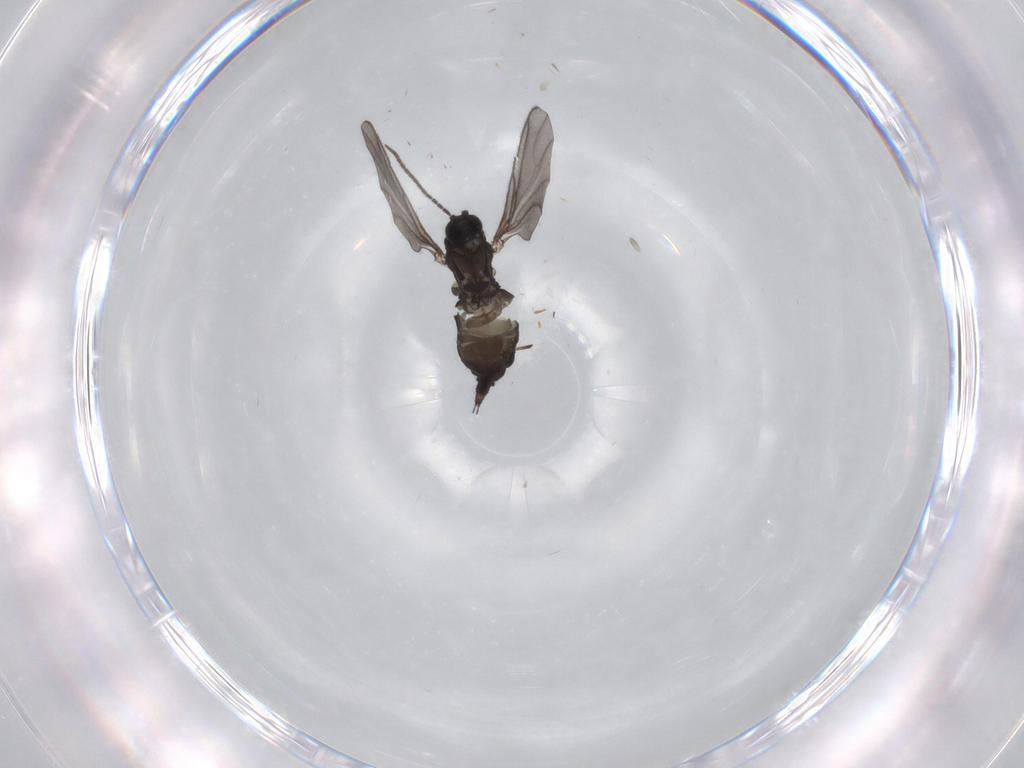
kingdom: Animalia
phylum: Arthropoda
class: Insecta
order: Diptera
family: Sciaridae
